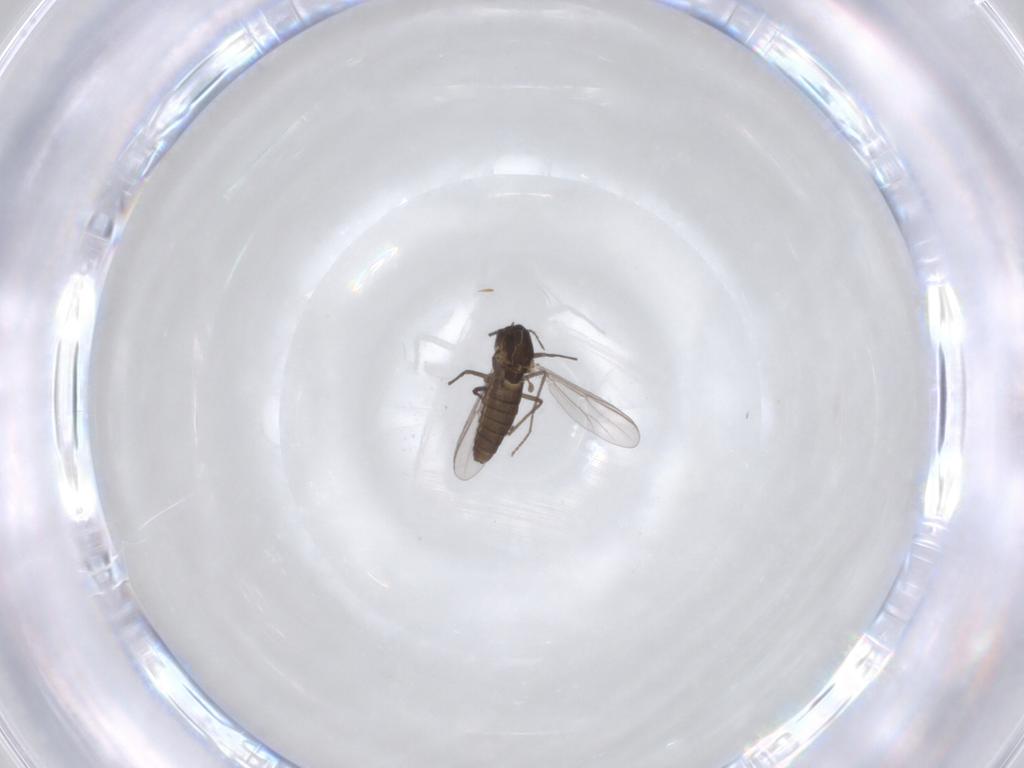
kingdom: Animalia
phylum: Arthropoda
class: Insecta
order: Diptera
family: Chironomidae
